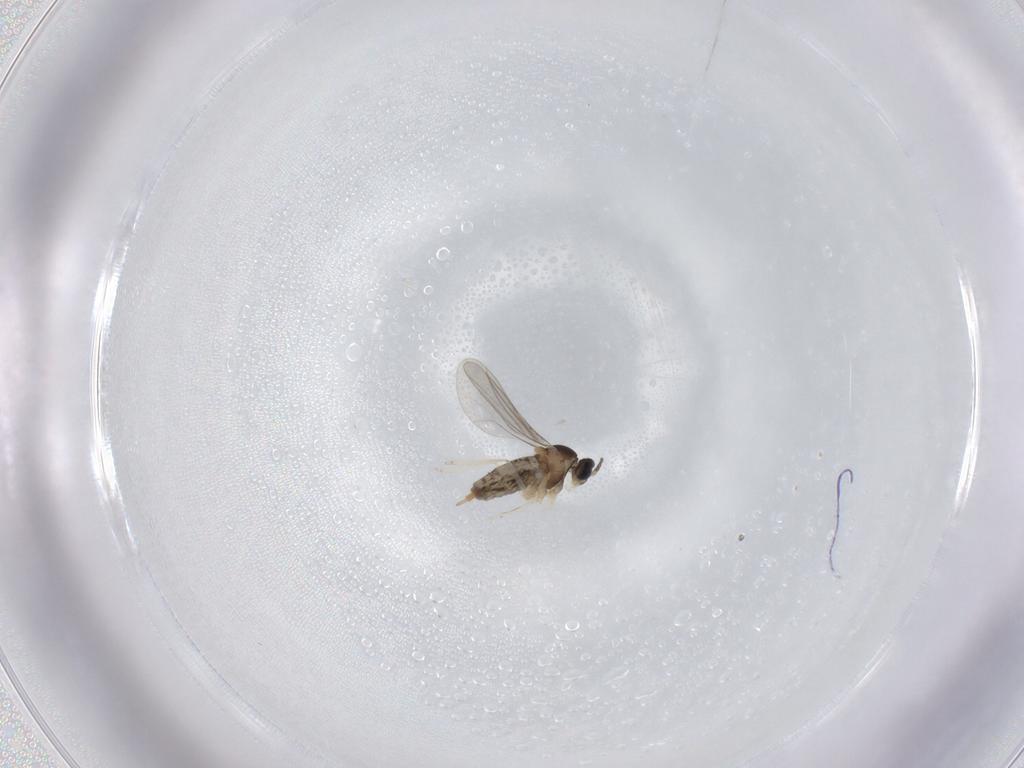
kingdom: Animalia
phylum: Arthropoda
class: Insecta
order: Diptera
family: Cecidomyiidae
